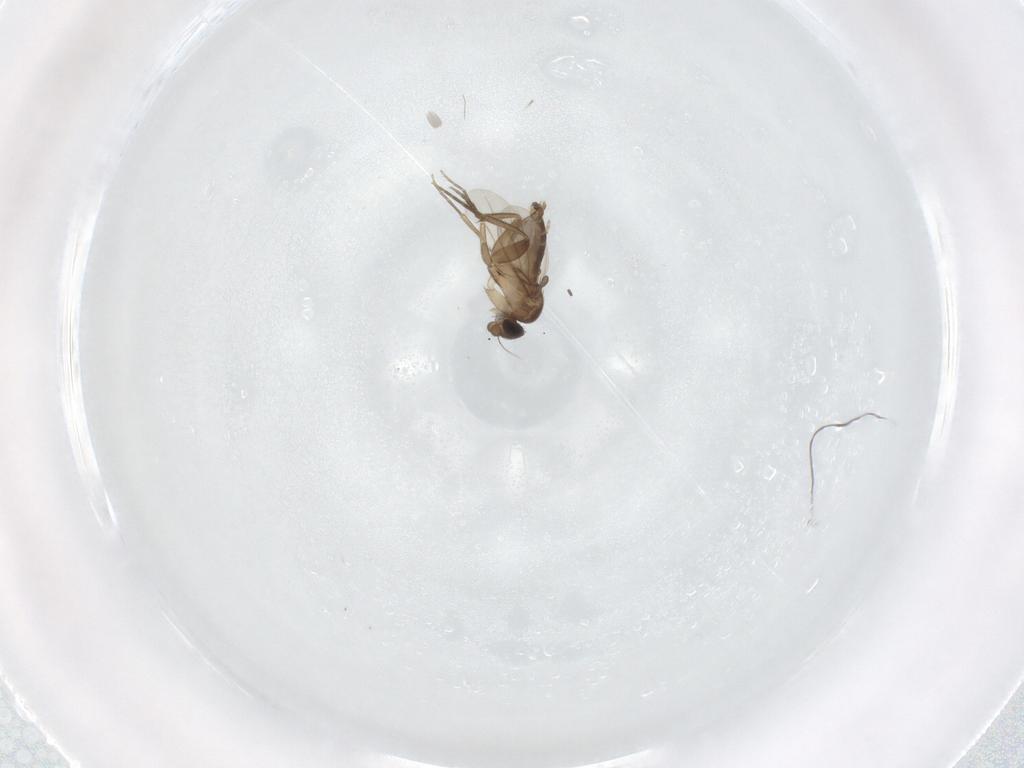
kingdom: Animalia
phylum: Arthropoda
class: Insecta
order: Diptera
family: Phoridae
